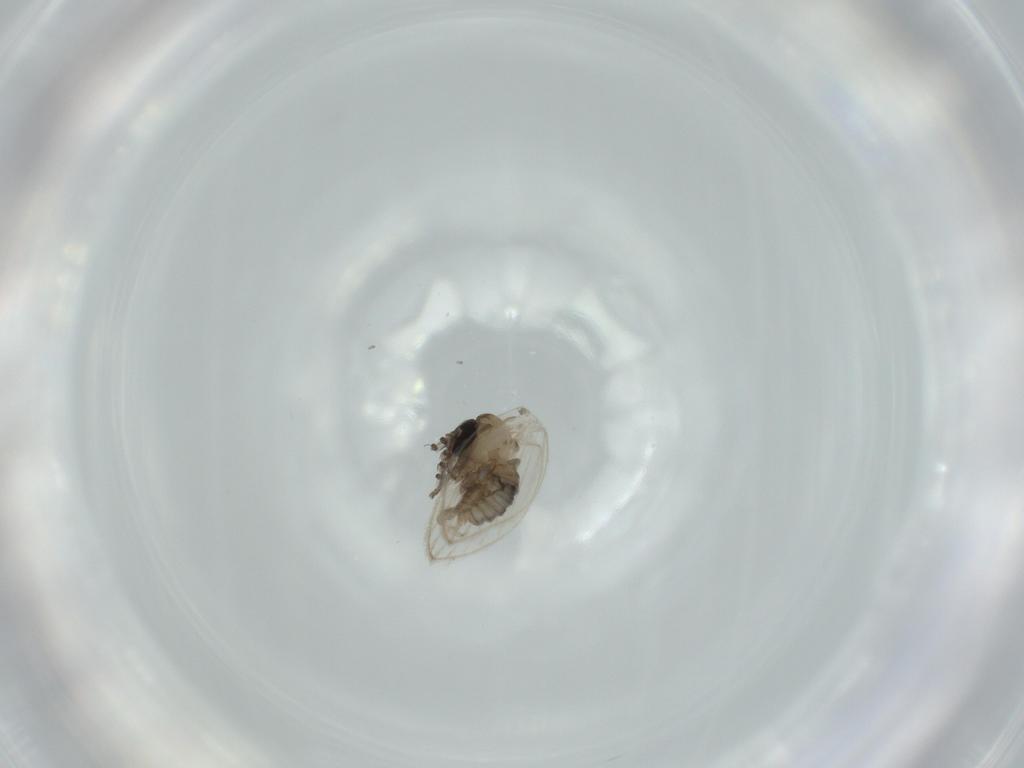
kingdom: Animalia
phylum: Arthropoda
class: Insecta
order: Diptera
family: Psychodidae
